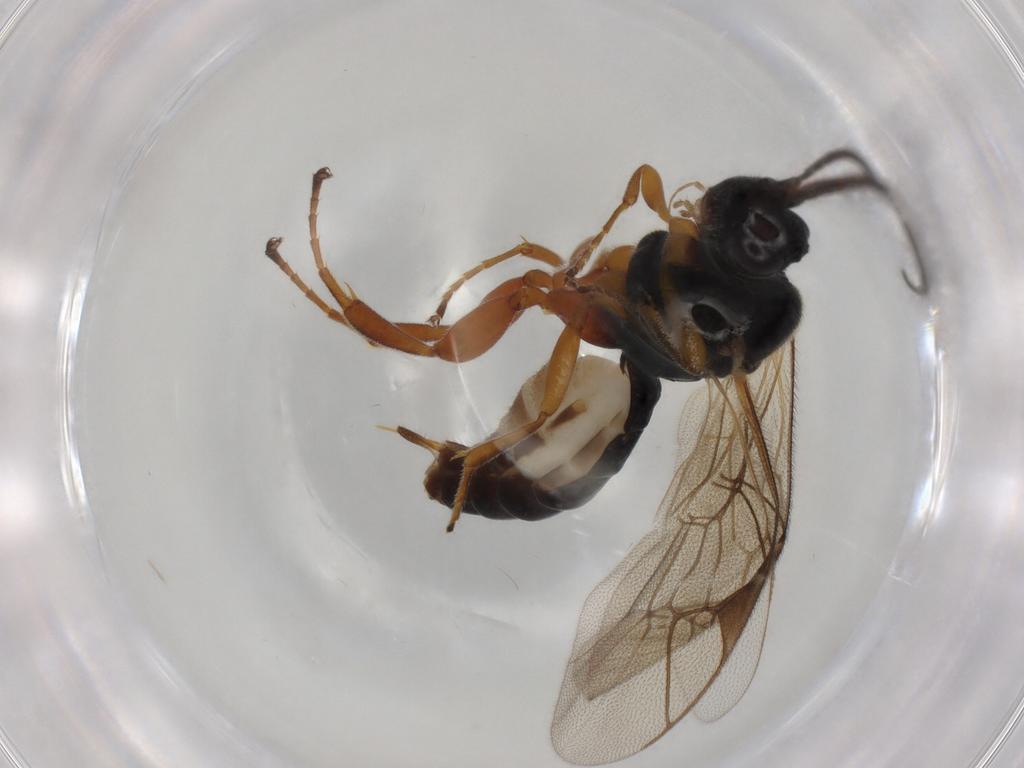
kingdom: Animalia
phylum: Arthropoda
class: Insecta
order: Hymenoptera
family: Ichneumonidae
